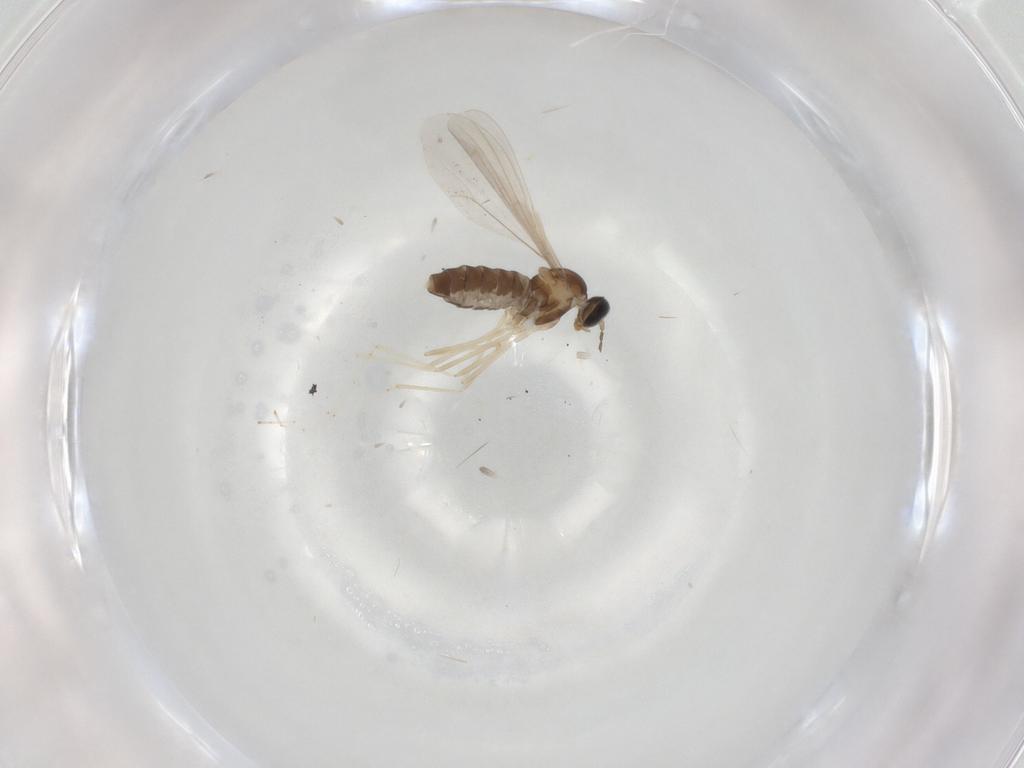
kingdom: Animalia
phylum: Arthropoda
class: Insecta
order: Diptera
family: Cecidomyiidae
